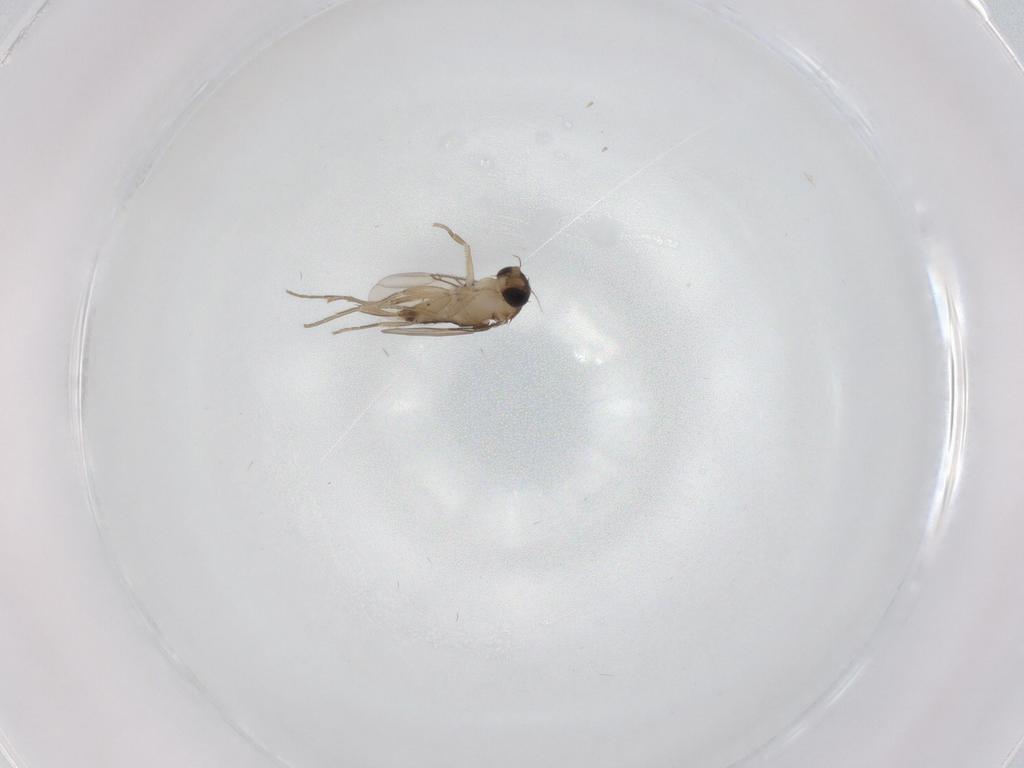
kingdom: Animalia
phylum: Arthropoda
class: Insecta
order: Diptera
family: Phoridae
